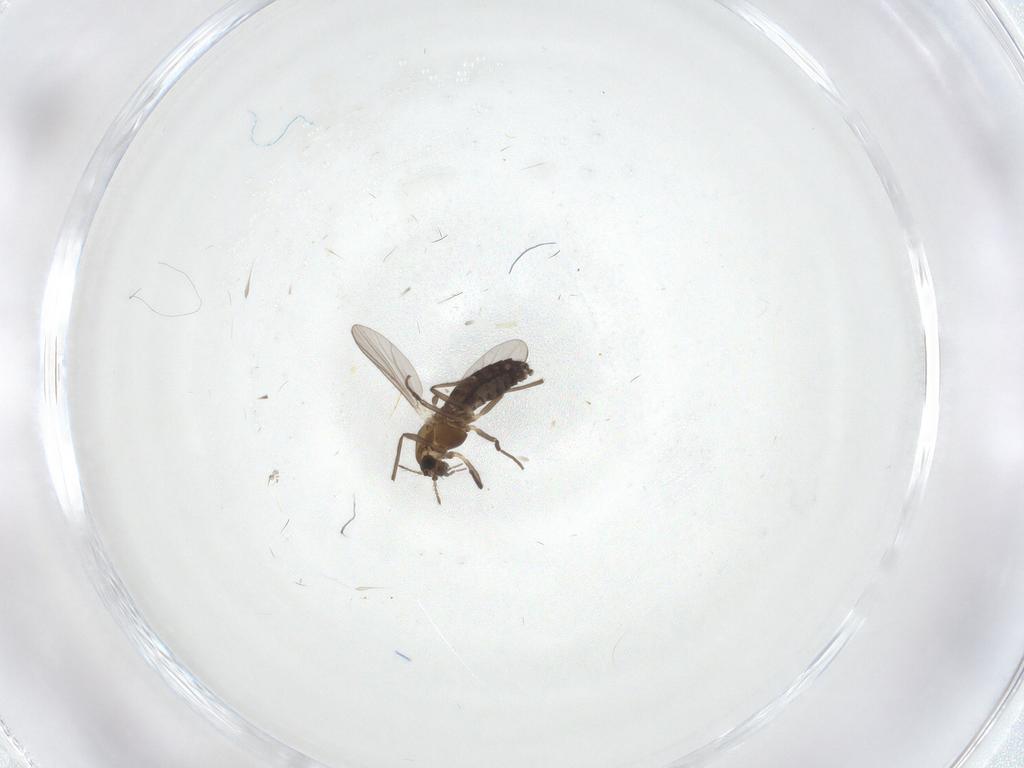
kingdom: Animalia
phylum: Arthropoda
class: Insecta
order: Diptera
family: Chironomidae
